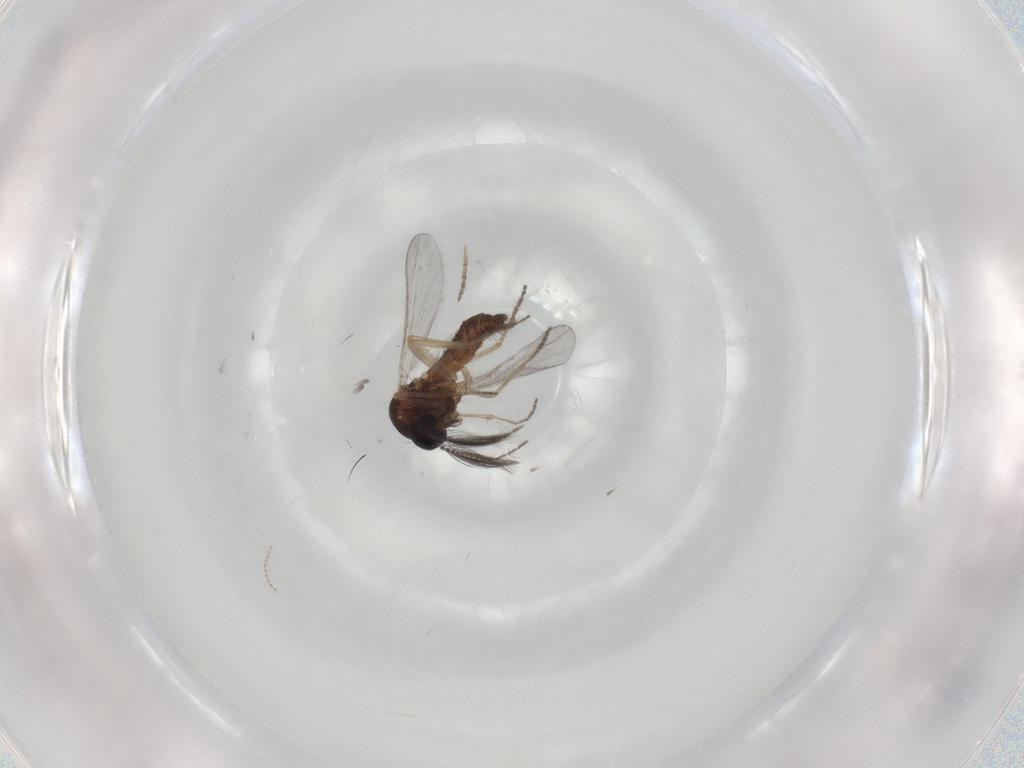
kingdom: Animalia
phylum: Arthropoda
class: Insecta
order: Diptera
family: Ceratopogonidae
